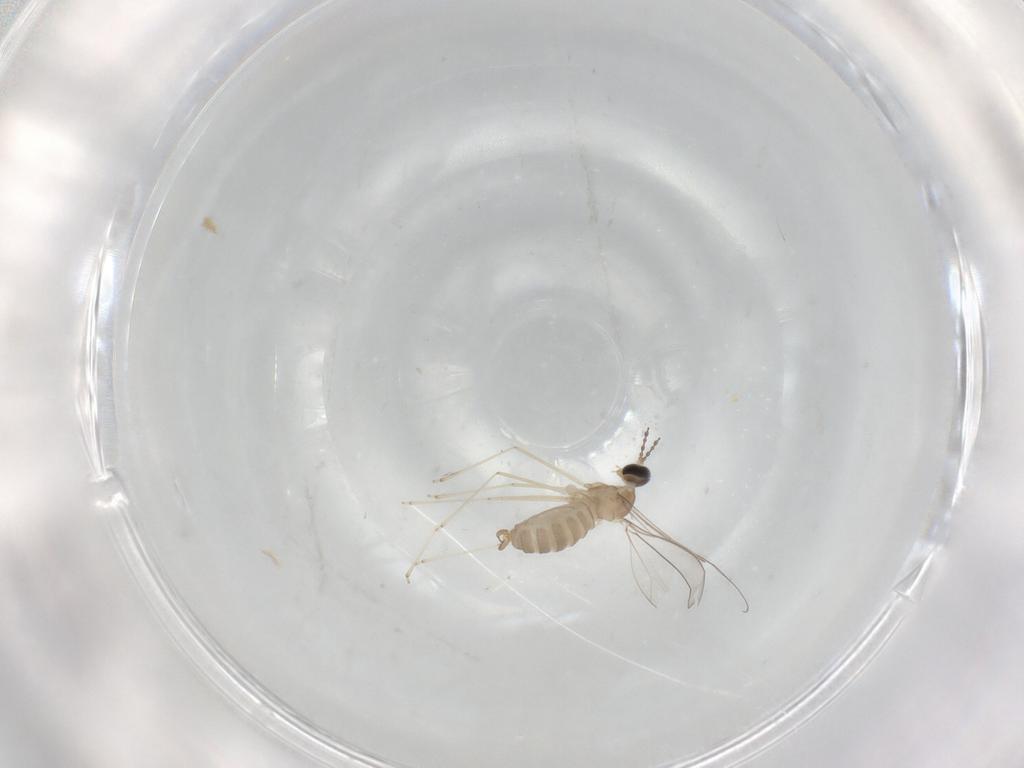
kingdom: Animalia
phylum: Arthropoda
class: Insecta
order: Diptera
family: Cecidomyiidae
